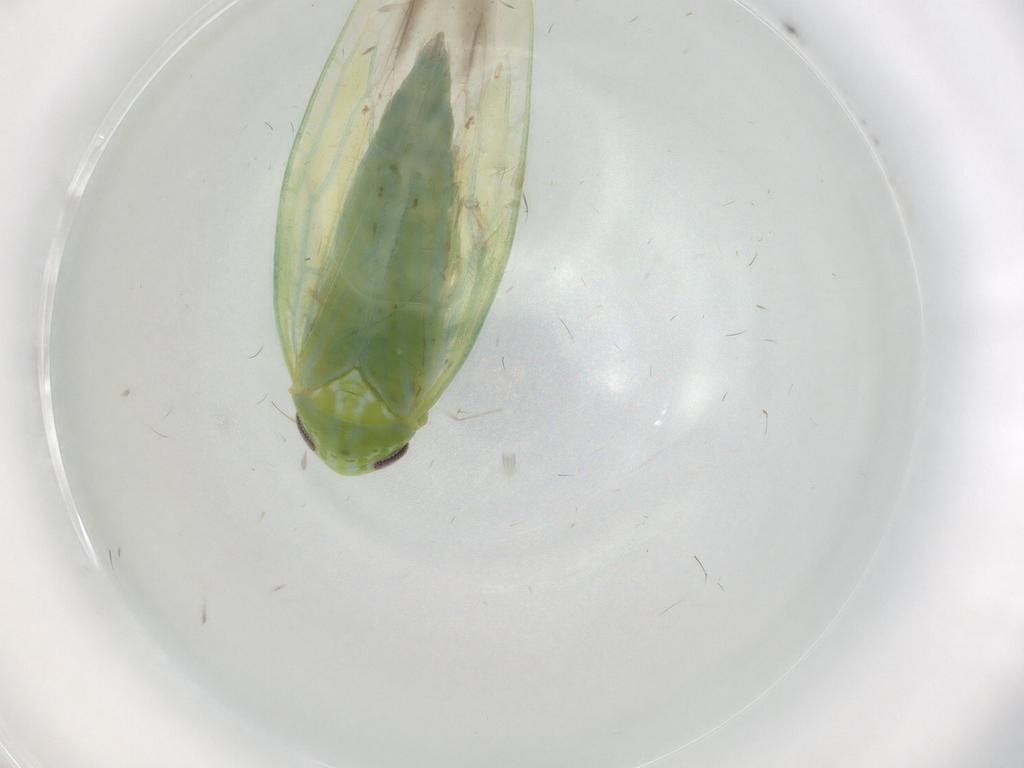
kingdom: Animalia
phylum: Arthropoda
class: Insecta
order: Hemiptera
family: Cicadellidae
